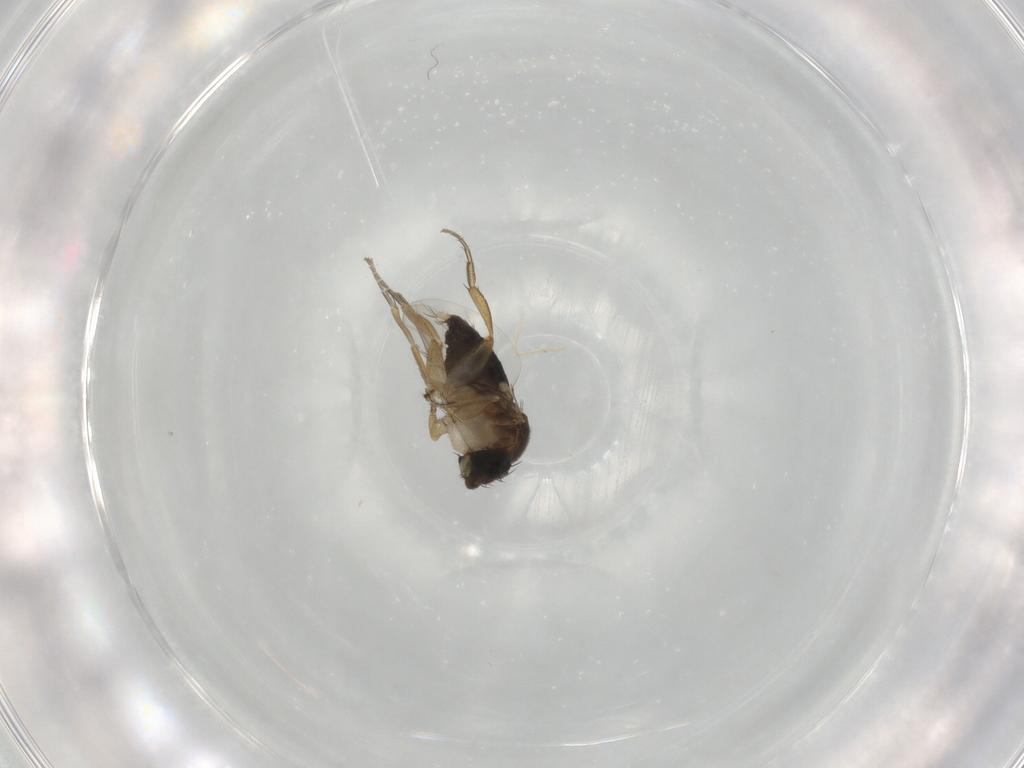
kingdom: Animalia
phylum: Arthropoda
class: Insecta
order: Diptera
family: Phoridae
